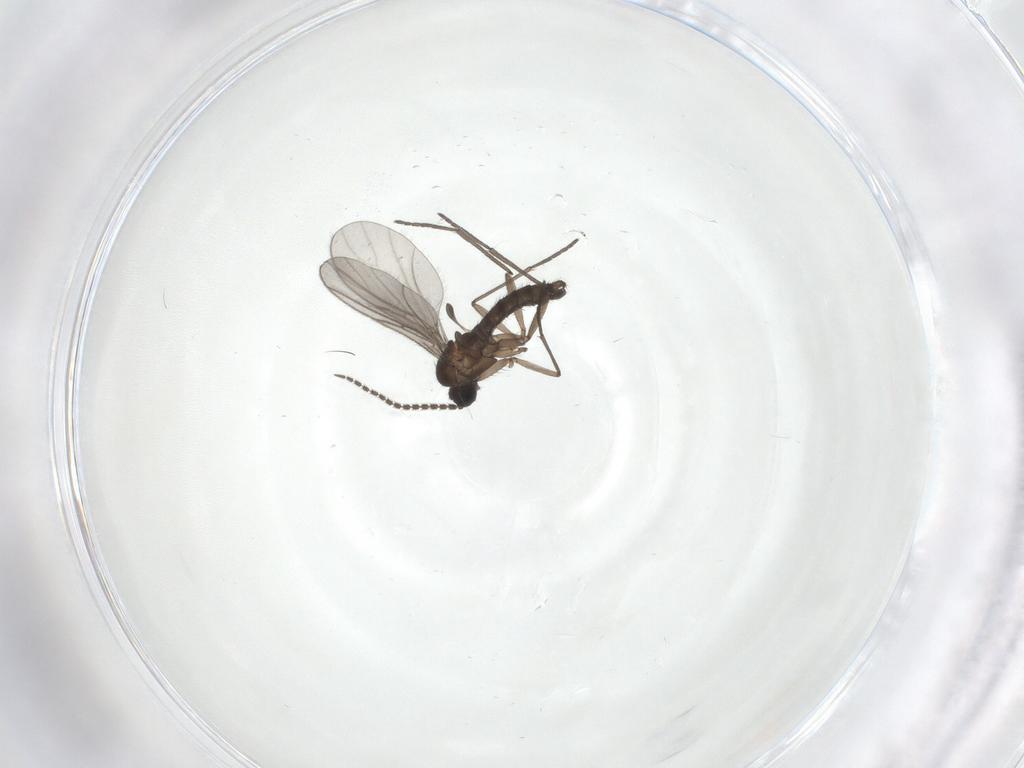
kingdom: Animalia
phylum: Arthropoda
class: Insecta
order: Diptera
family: Sciaridae
